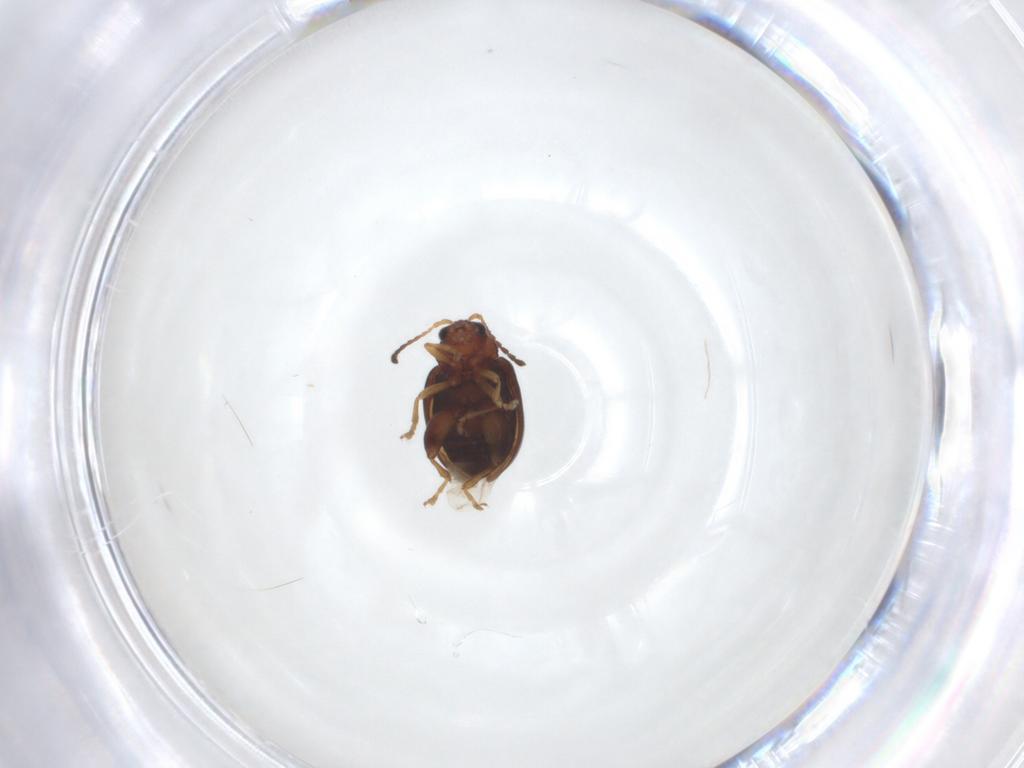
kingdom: Animalia
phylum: Arthropoda
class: Insecta
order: Coleoptera
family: Chrysomelidae
